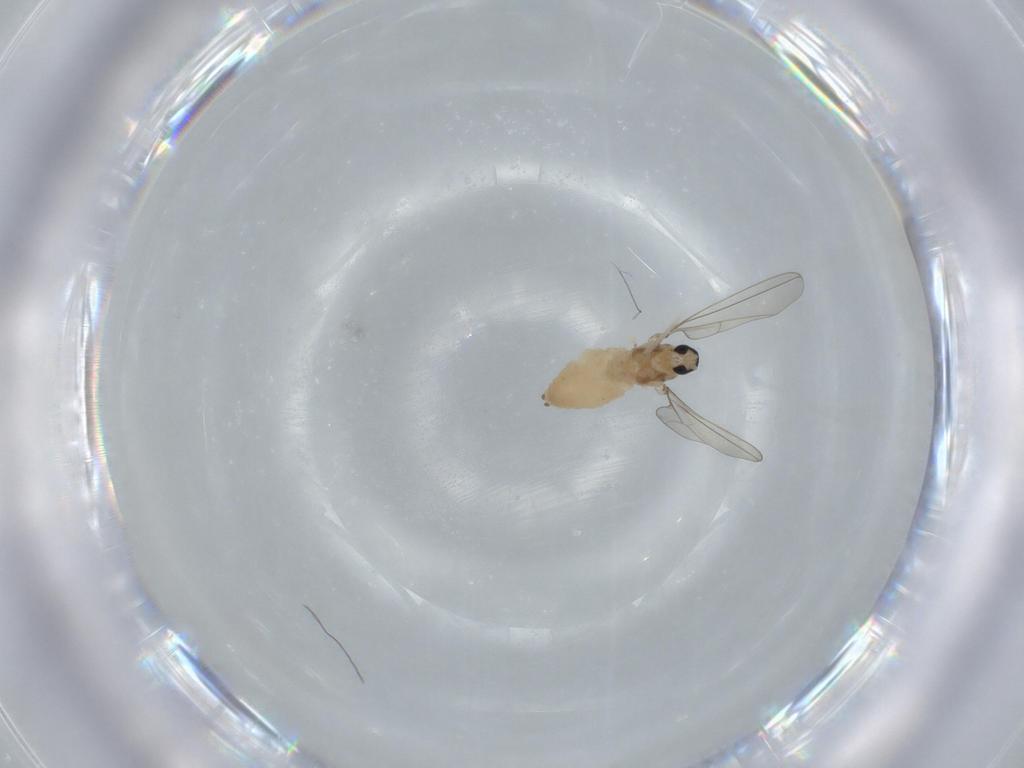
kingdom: Animalia
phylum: Arthropoda
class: Insecta
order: Diptera
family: Chironomidae
